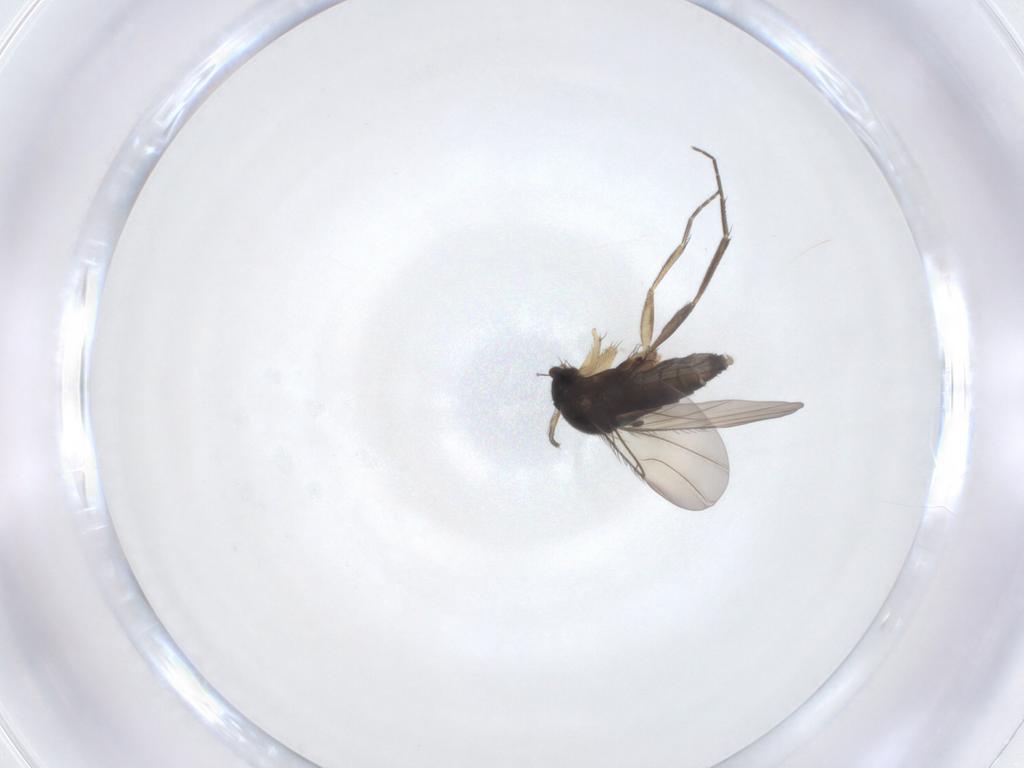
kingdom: Animalia
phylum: Arthropoda
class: Insecta
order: Diptera
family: Phoridae
